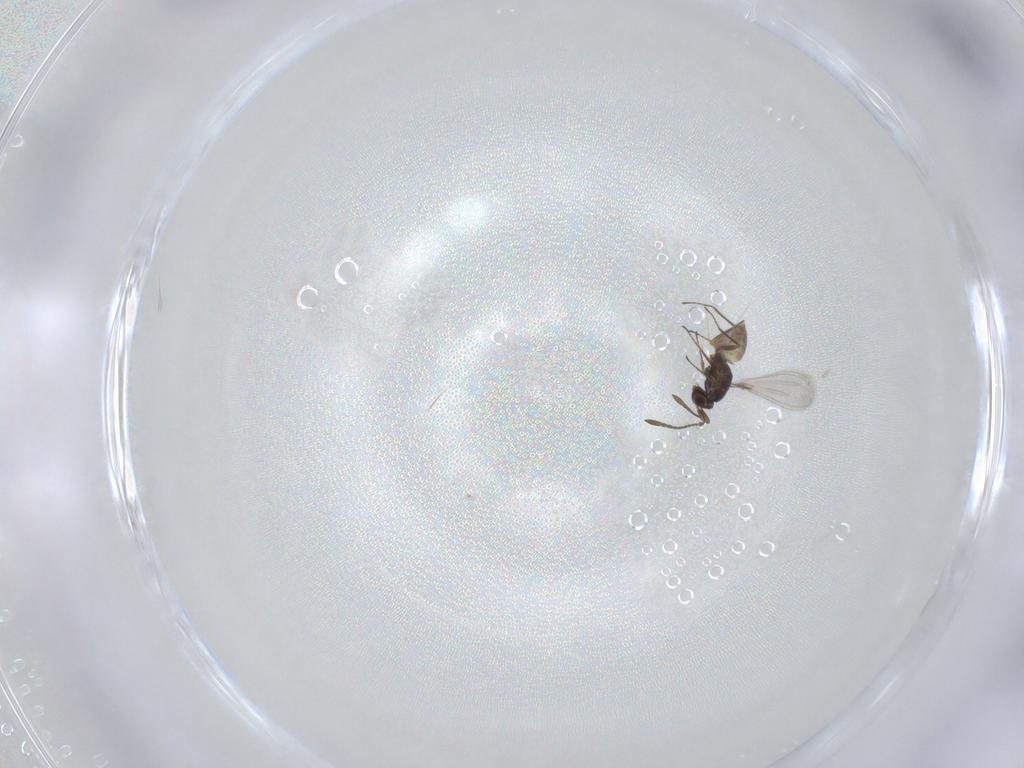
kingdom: Animalia
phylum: Arthropoda
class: Insecta
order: Hymenoptera
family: Mymaridae
